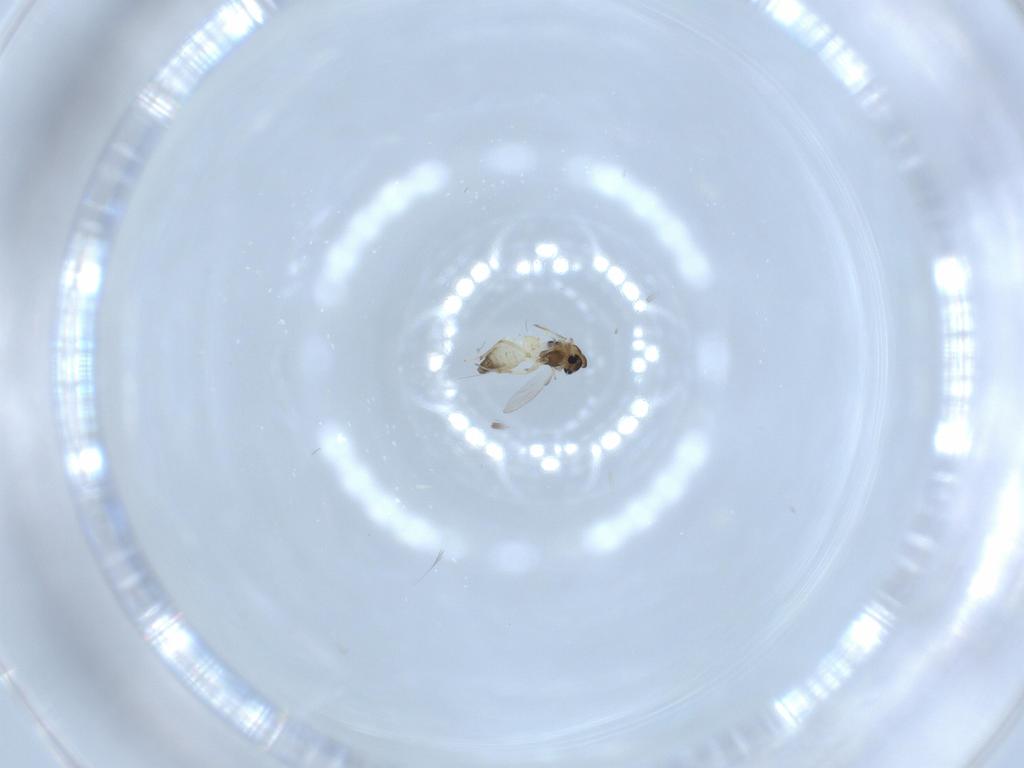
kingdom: Animalia
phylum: Arthropoda
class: Insecta
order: Diptera
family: Chironomidae
